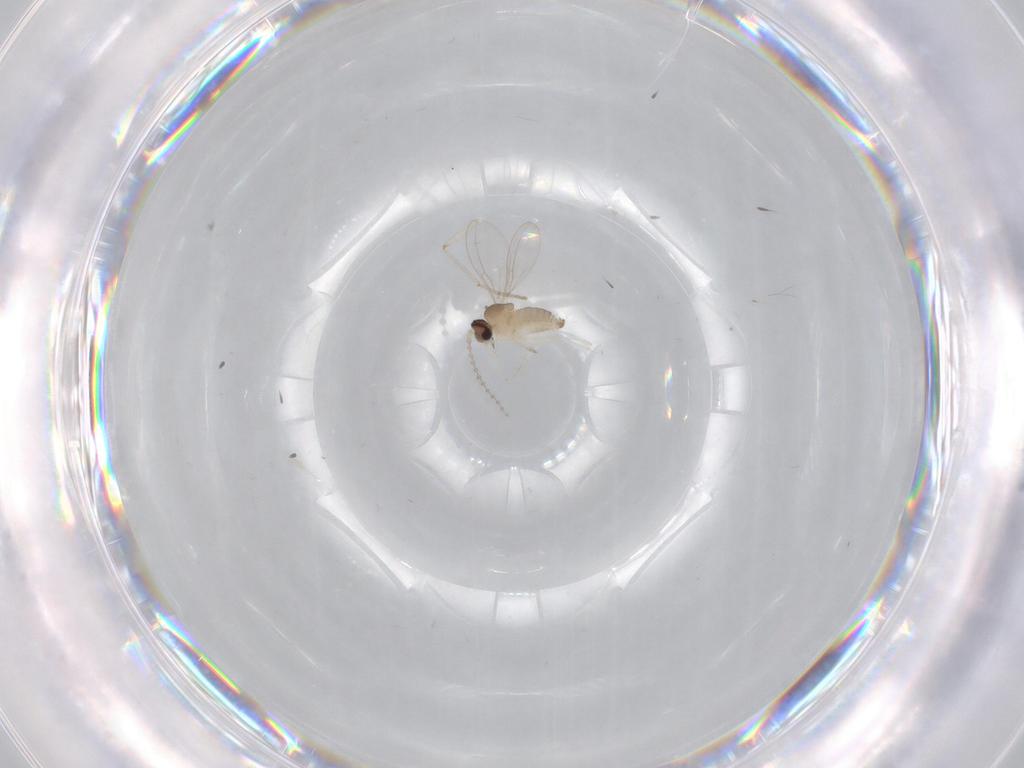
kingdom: Animalia
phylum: Arthropoda
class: Insecta
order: Diptera
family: Cecidomyiidae
